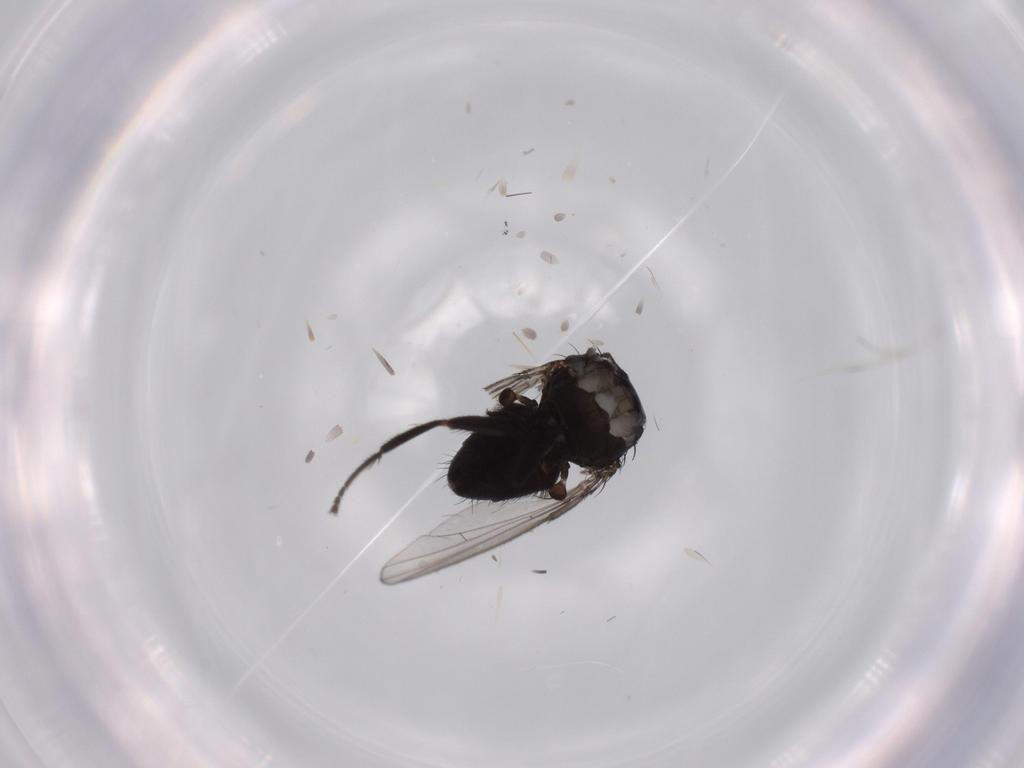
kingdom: Animalia
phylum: Arthropoda
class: Insecta
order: Diptera
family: Milichiidae
